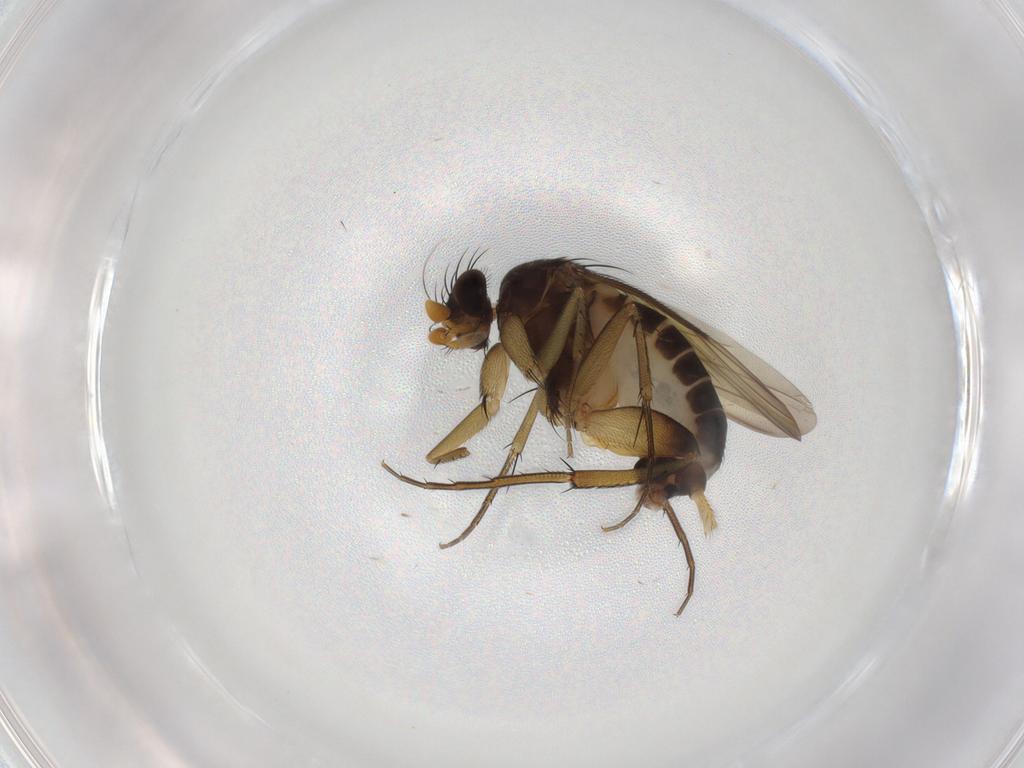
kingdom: Animalia
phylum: Arthropoda
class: Insecta
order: Diptera
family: Phoridae
